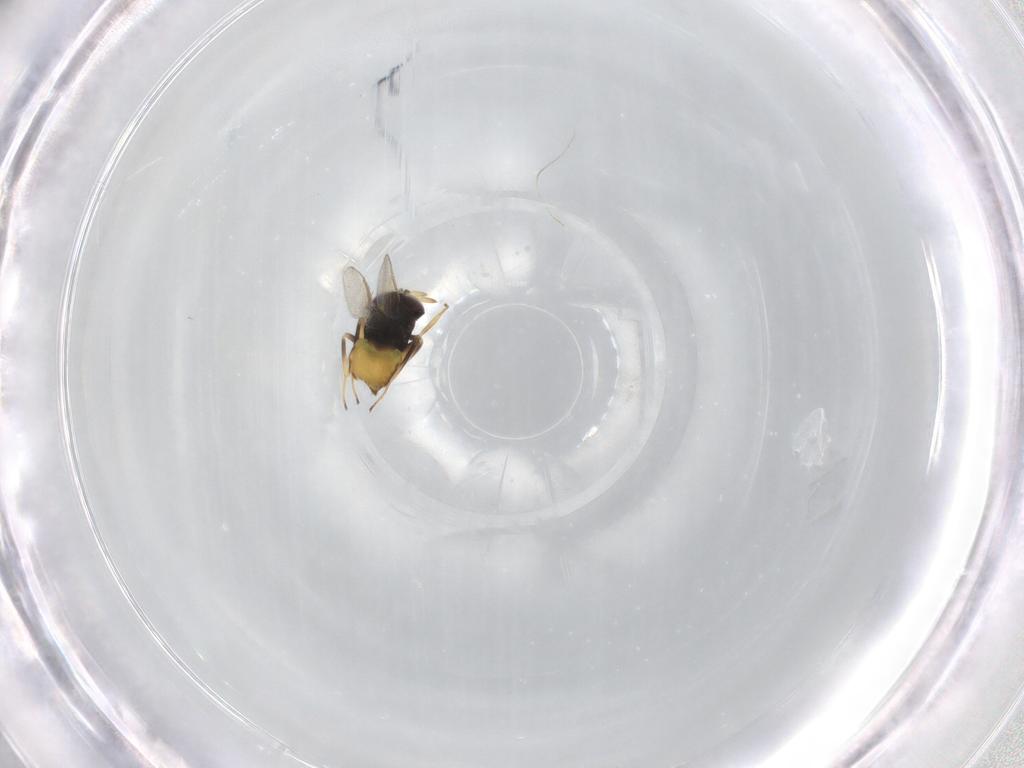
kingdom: Animalia
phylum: Arthropoda
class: Insecta
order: Hymenoptera
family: Aphelinidae
